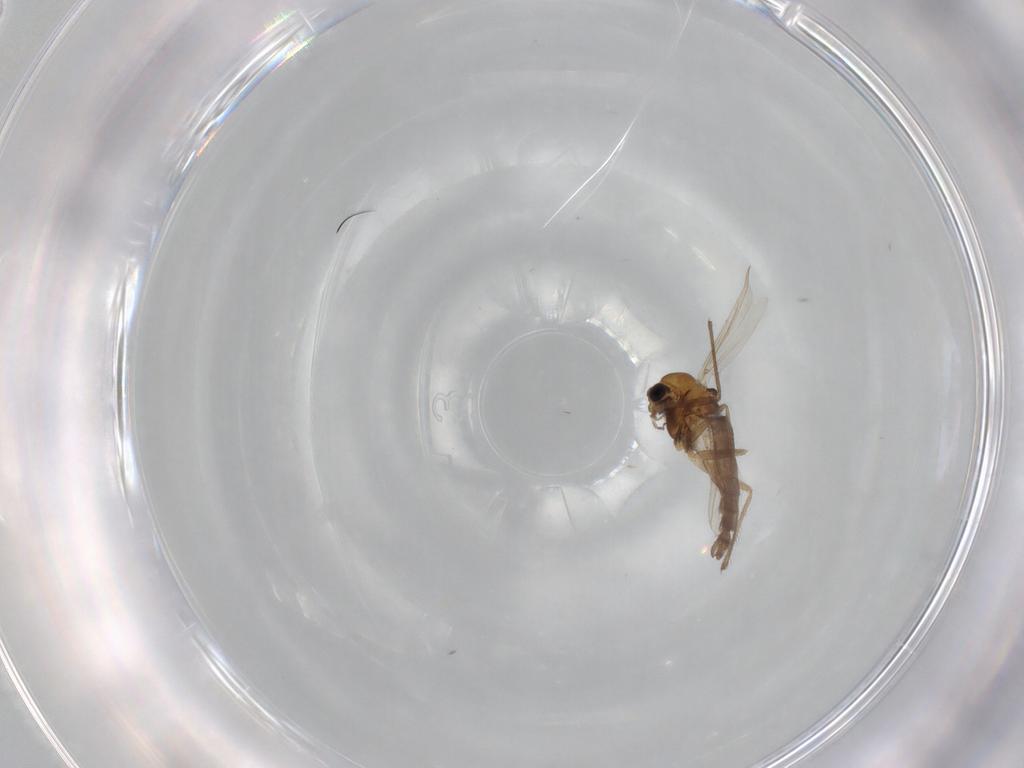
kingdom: Animalia
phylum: Arthropoda
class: Insecta
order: Diptera
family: Chironomidae
